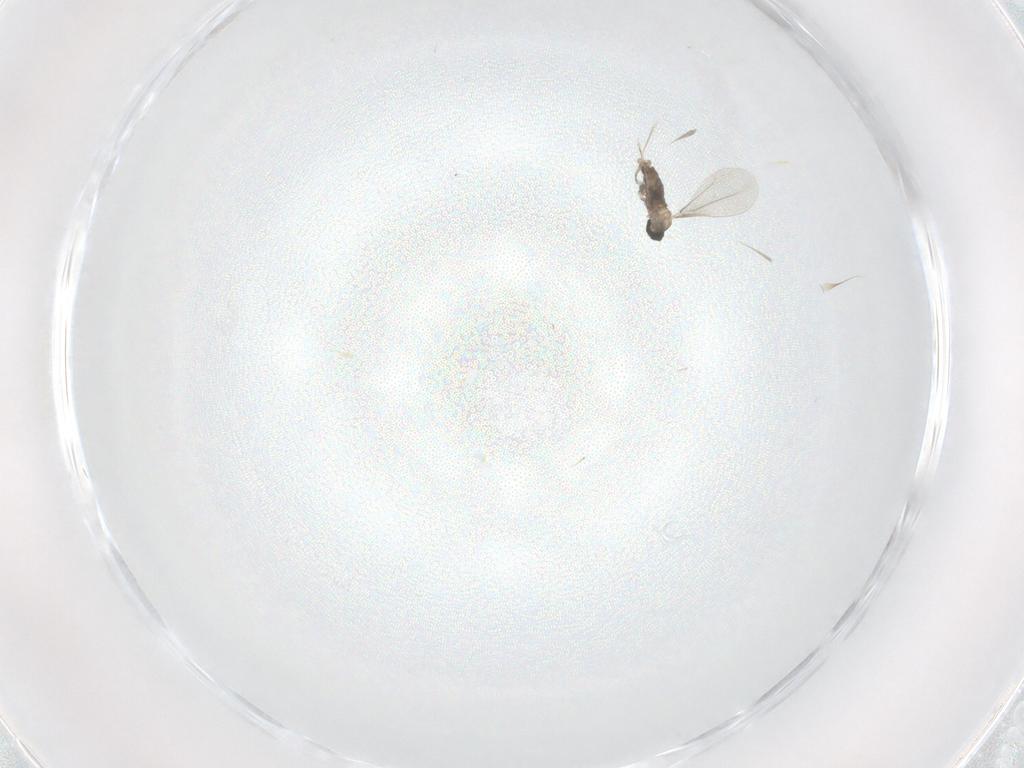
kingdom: Animalia
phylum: Arthropoda
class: Insecta
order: Diptera
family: Cecidomyiidae
